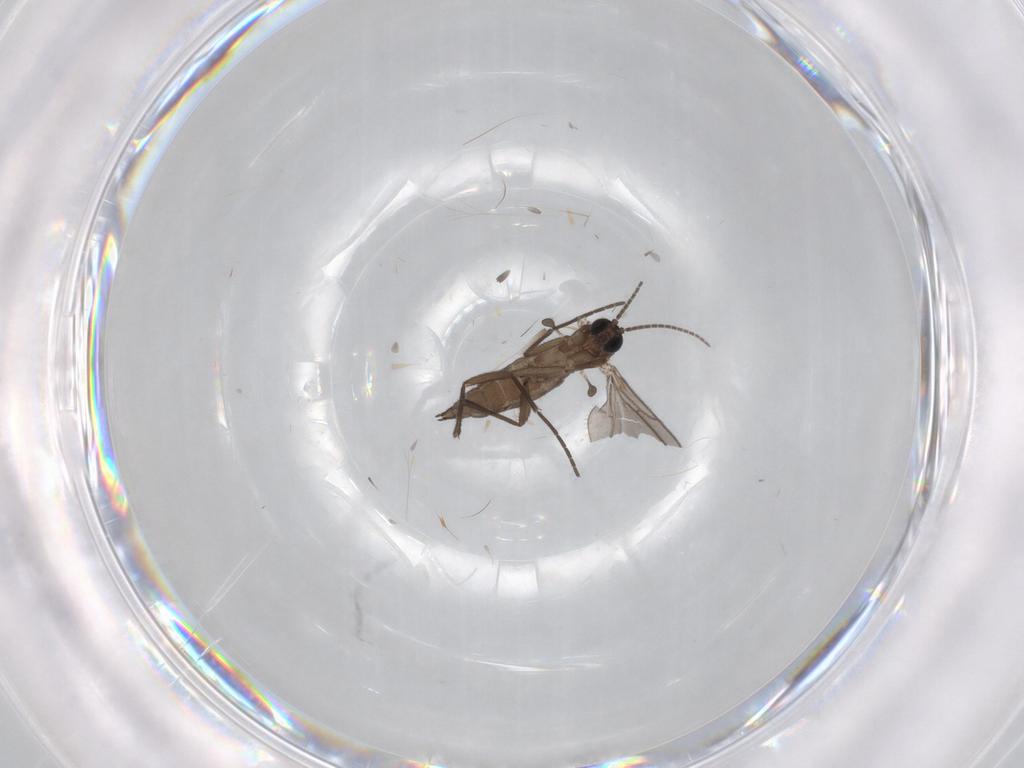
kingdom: Animalia
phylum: Arthropoda
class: Insecta
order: Diptera
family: Sciaridae
